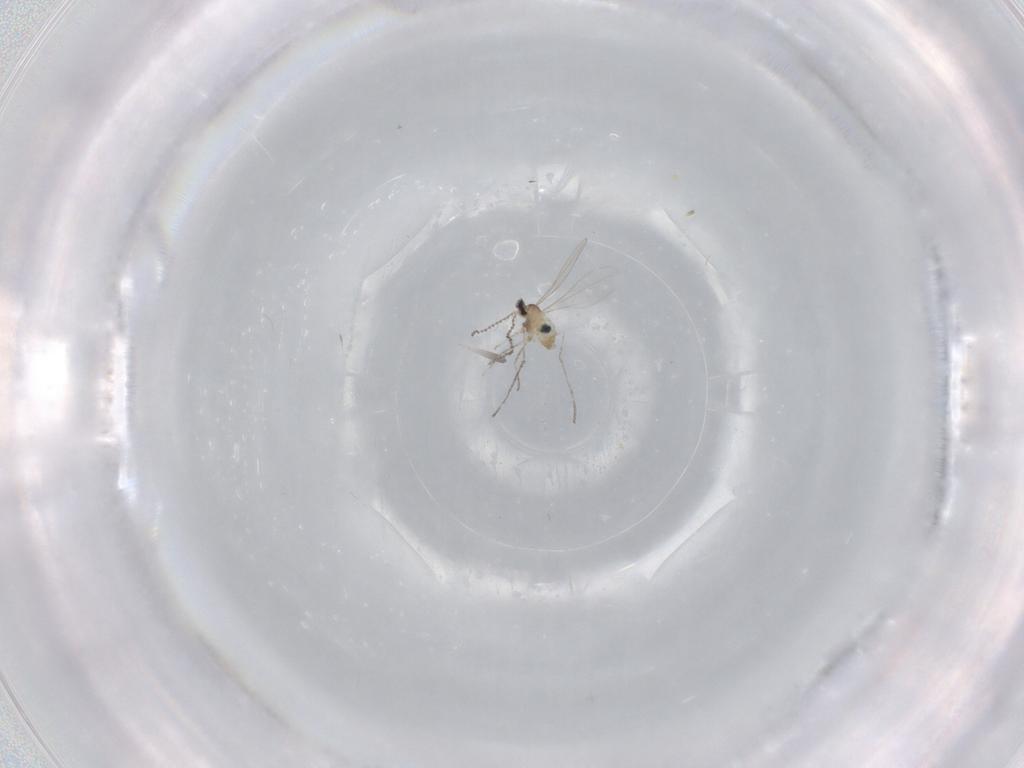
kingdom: Animalia
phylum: Arthropoda
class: Insecta
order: Diptera
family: Cecidomyiidae
